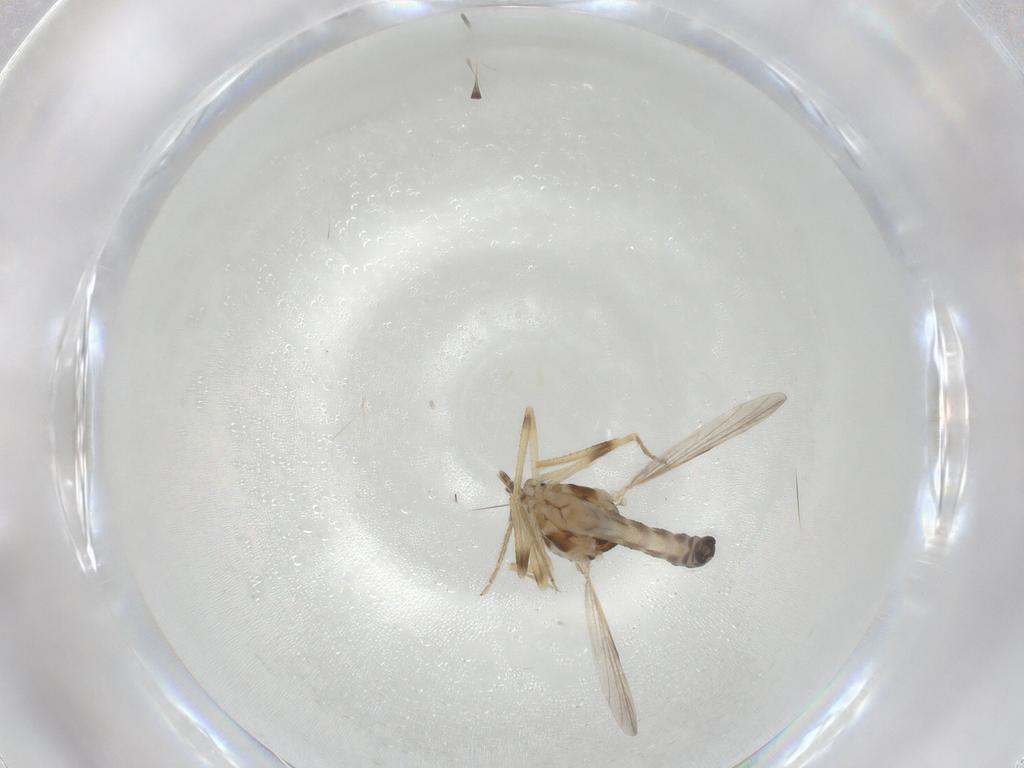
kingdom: Animalia
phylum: Arthropoda
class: Insecta
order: Diptera
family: Ceratopogonidae
